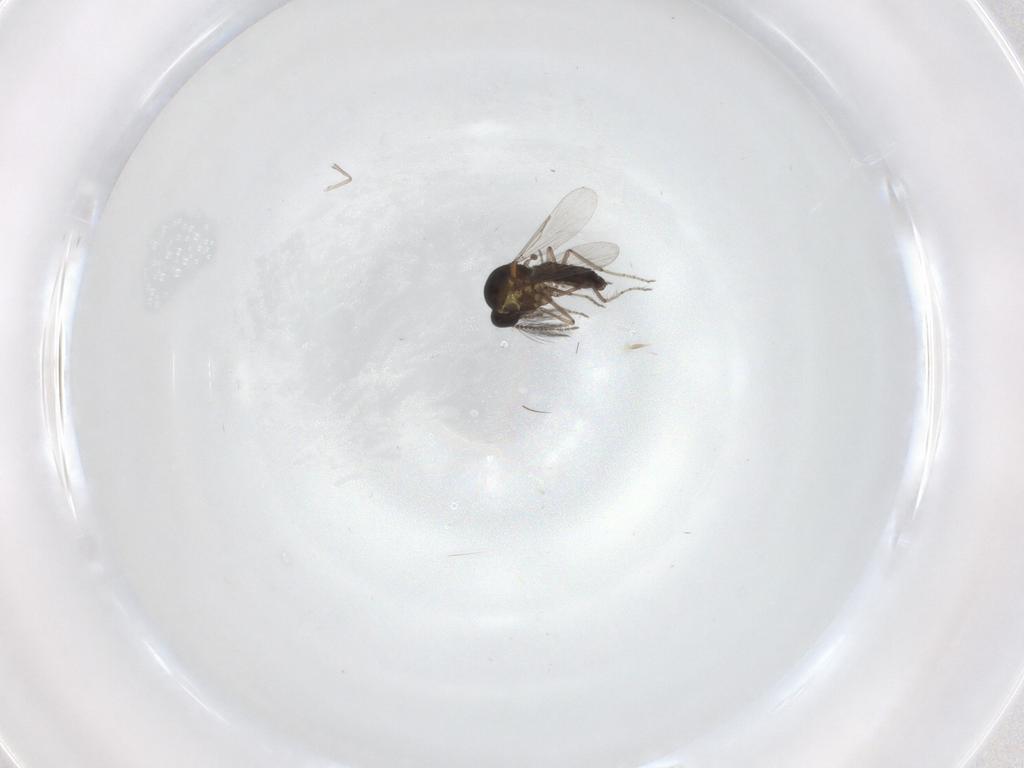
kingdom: Animalia
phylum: Arthropoda
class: Insecta
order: Diptera
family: Ceratopogonidae
